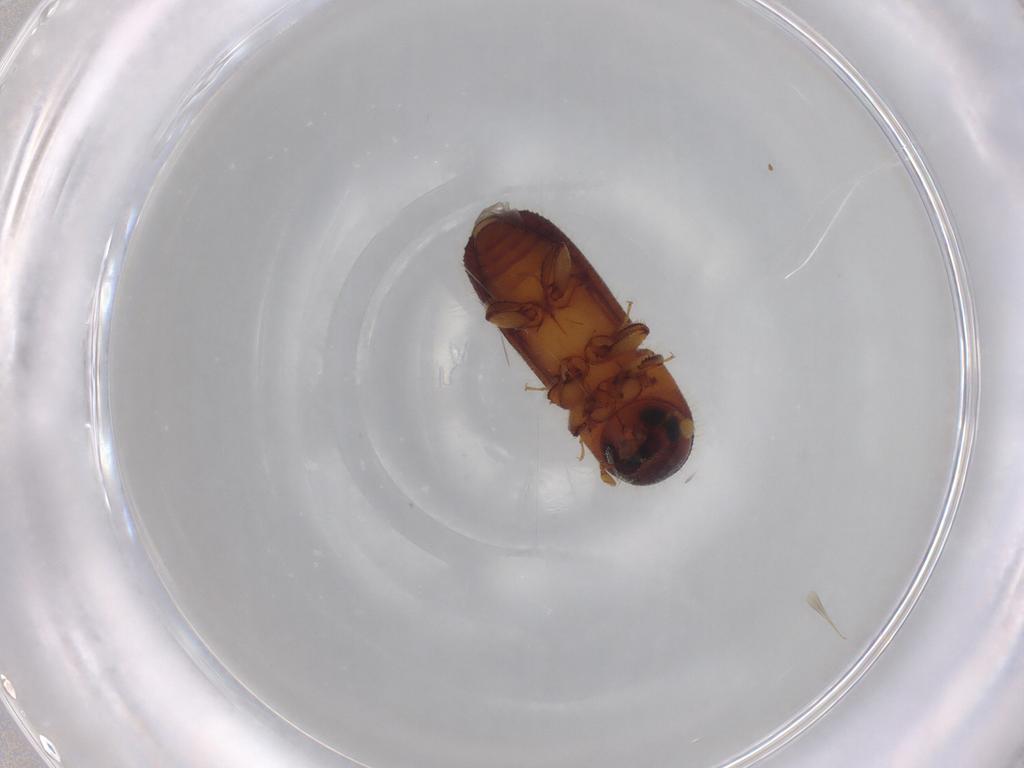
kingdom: Animalia
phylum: Arthropoda
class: Insecta
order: Coleoptera
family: Curculionidae
